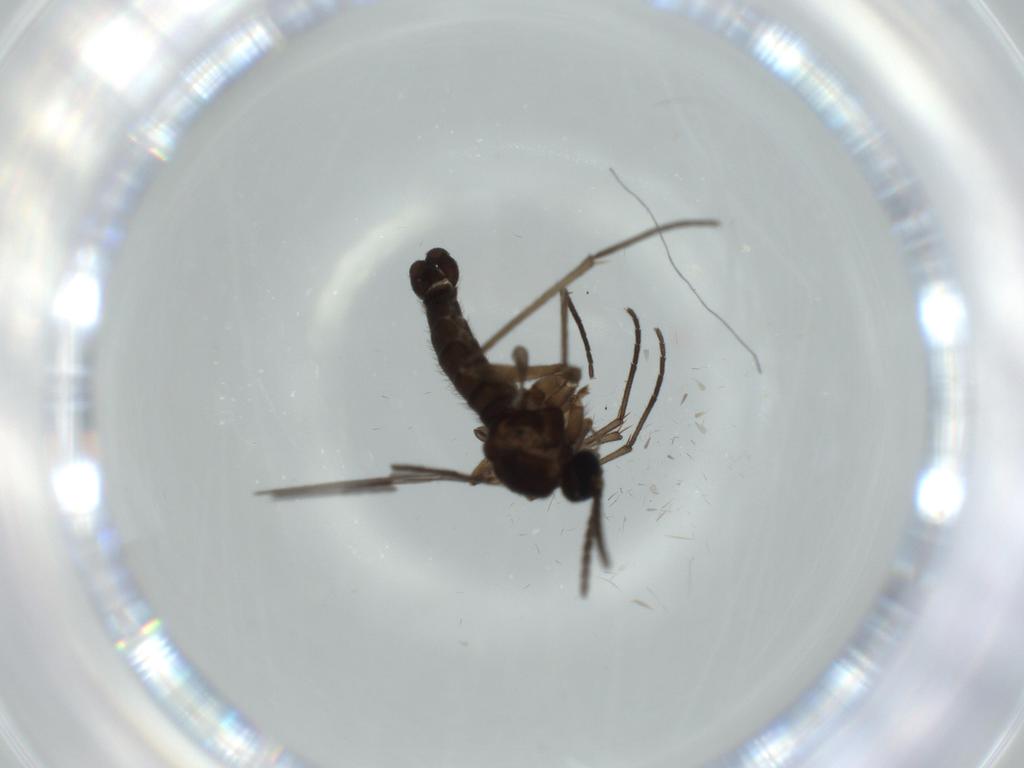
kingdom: Animalia
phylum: Arthropoda
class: Insecta
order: Diptera
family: Sciaridae
